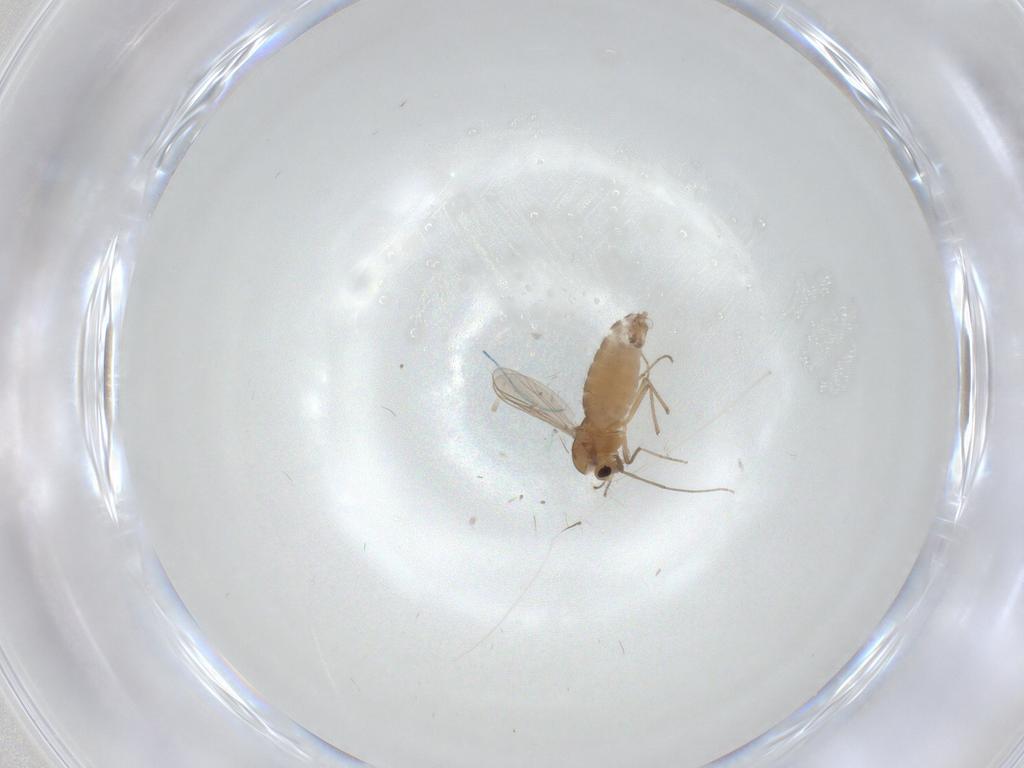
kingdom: Animalia
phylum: Arthropoda
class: Insecta
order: Diptera
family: Chironomidae
